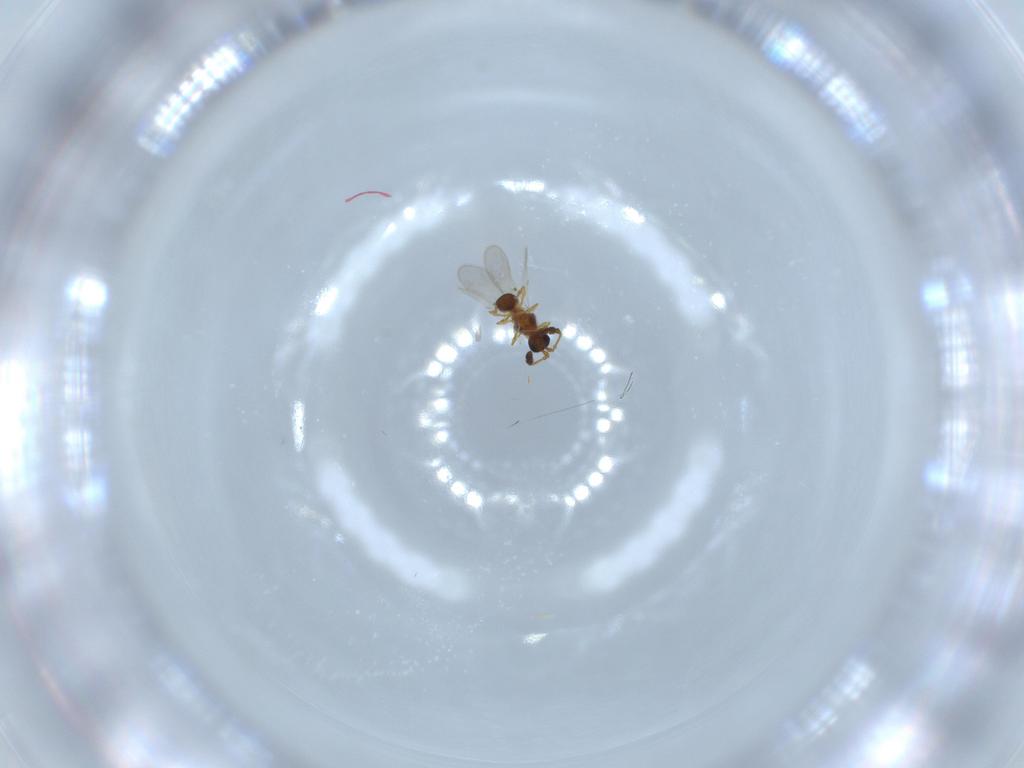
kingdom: Animalia
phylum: Arthropoda
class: Insecta
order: Hymenoptera
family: Diapriidae
